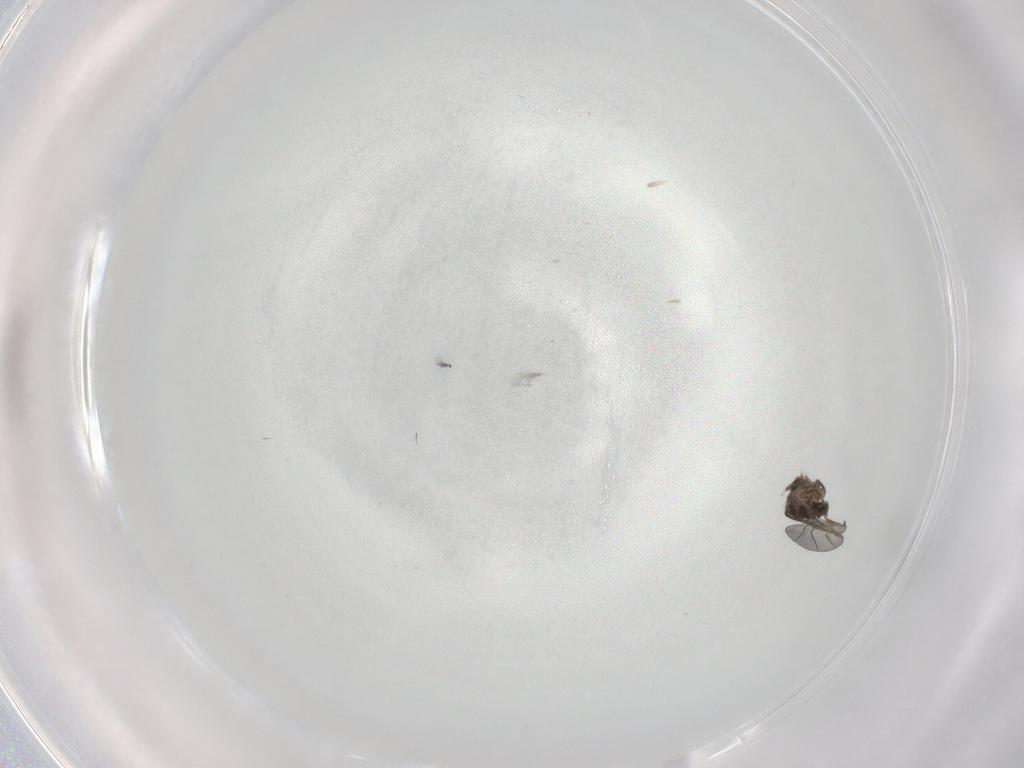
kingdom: Animalia
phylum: Arthropoda
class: Insecta
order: Diptera
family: Phoridae
